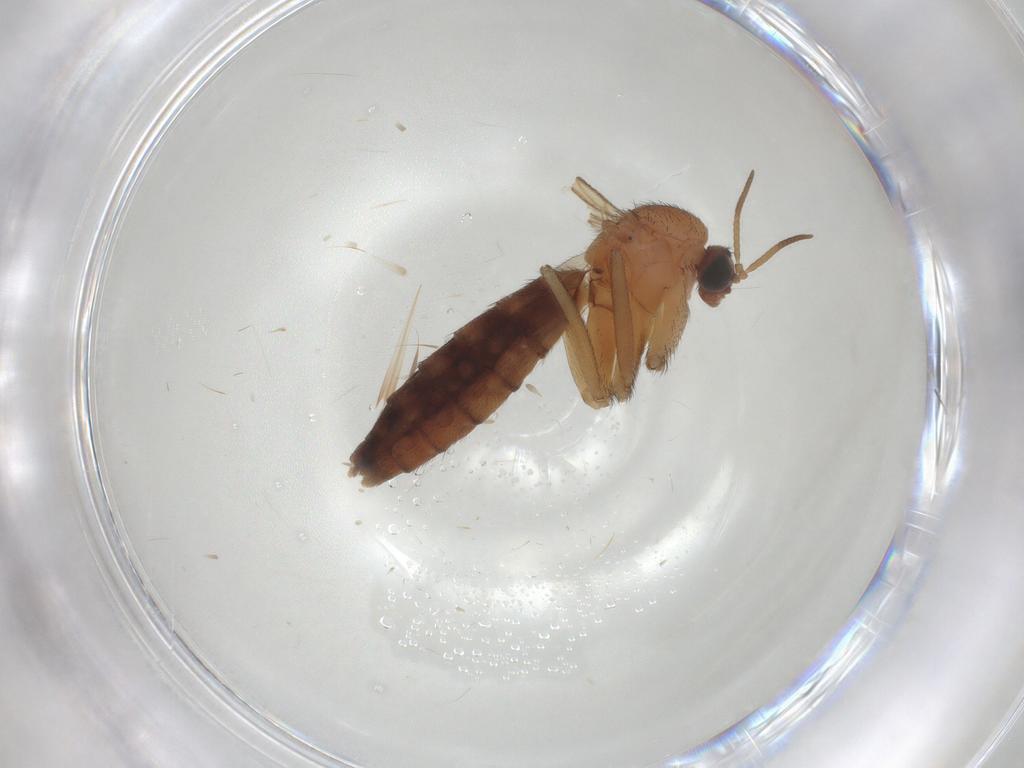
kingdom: Animalia
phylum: Arthropoda
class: Insecta
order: Diptera
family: Keroplatidae
